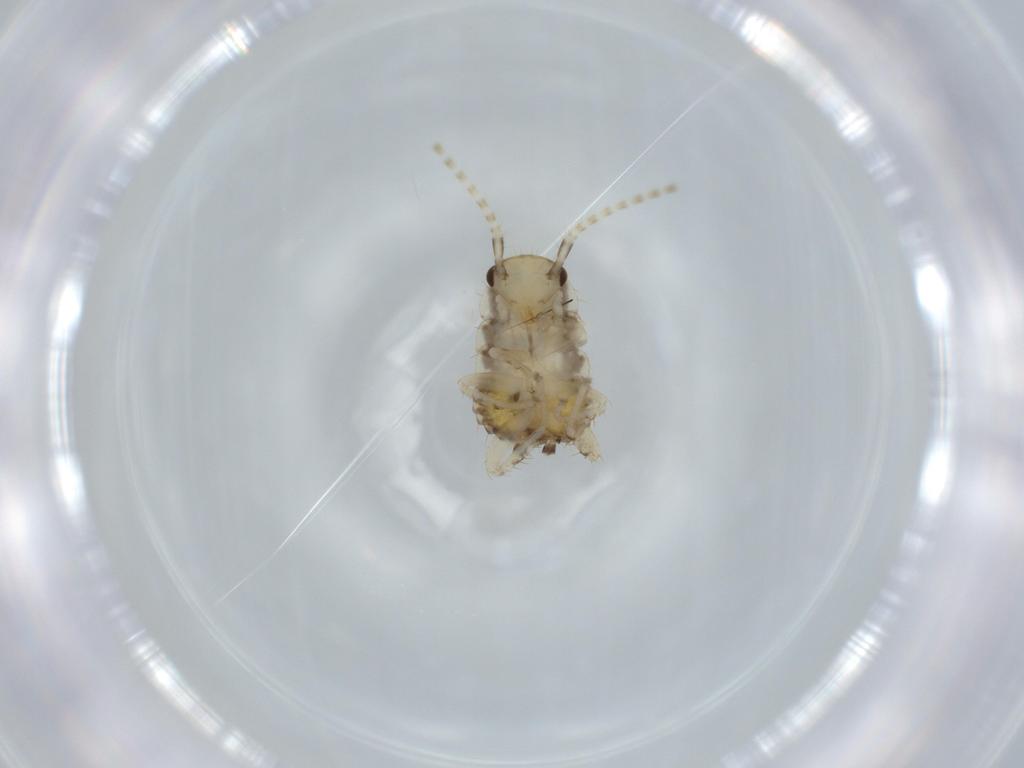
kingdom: Animalia
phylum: Arthropoda
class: Insecta
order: Blattodea
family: Ectobiidae
